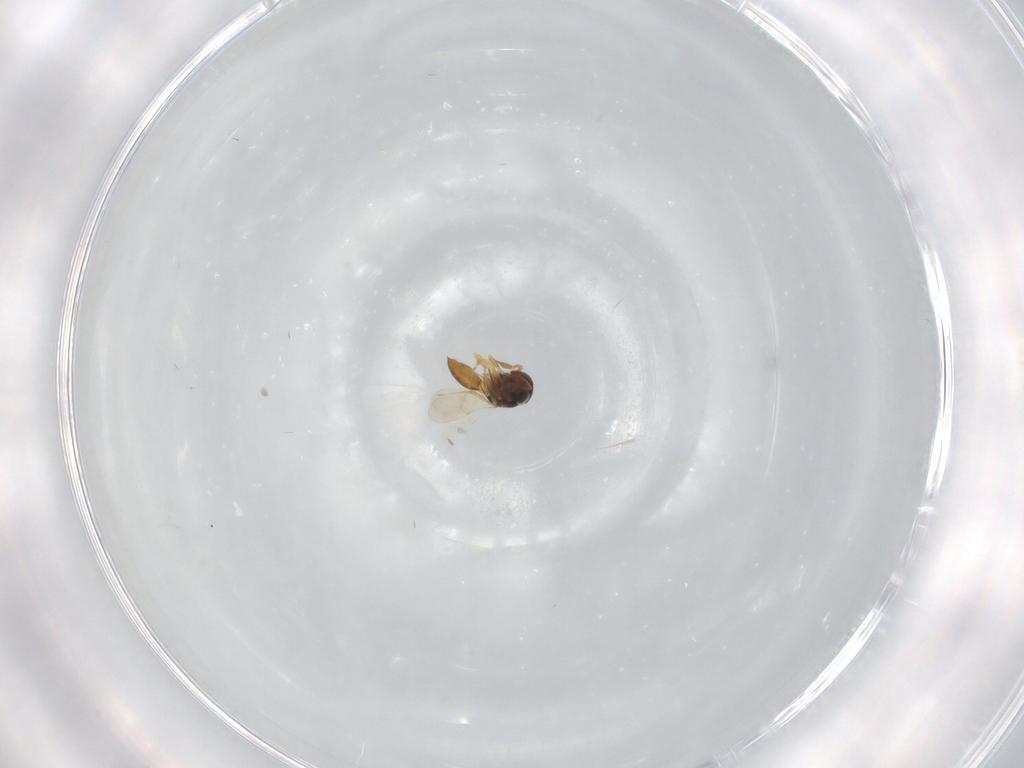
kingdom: Animalia
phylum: Arthropoda
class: Insecta
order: Hymenoptera
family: Scelionidae
